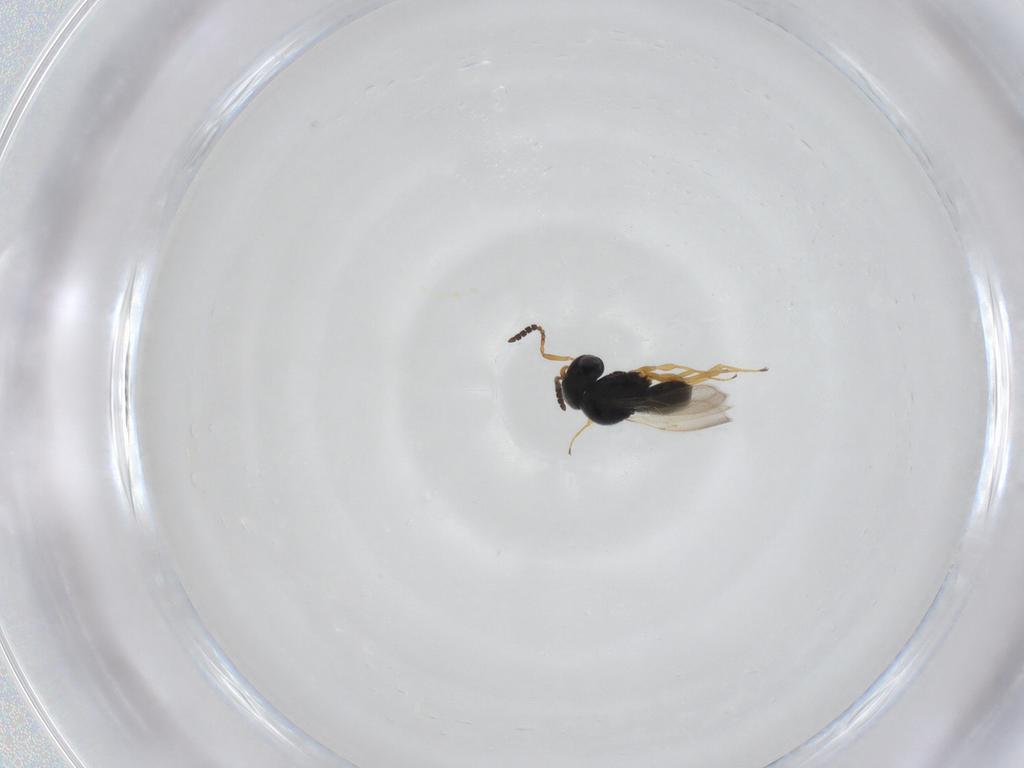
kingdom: Animalia
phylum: Arthropoda
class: Insecta
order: Hymenoptera
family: Scelionidae
